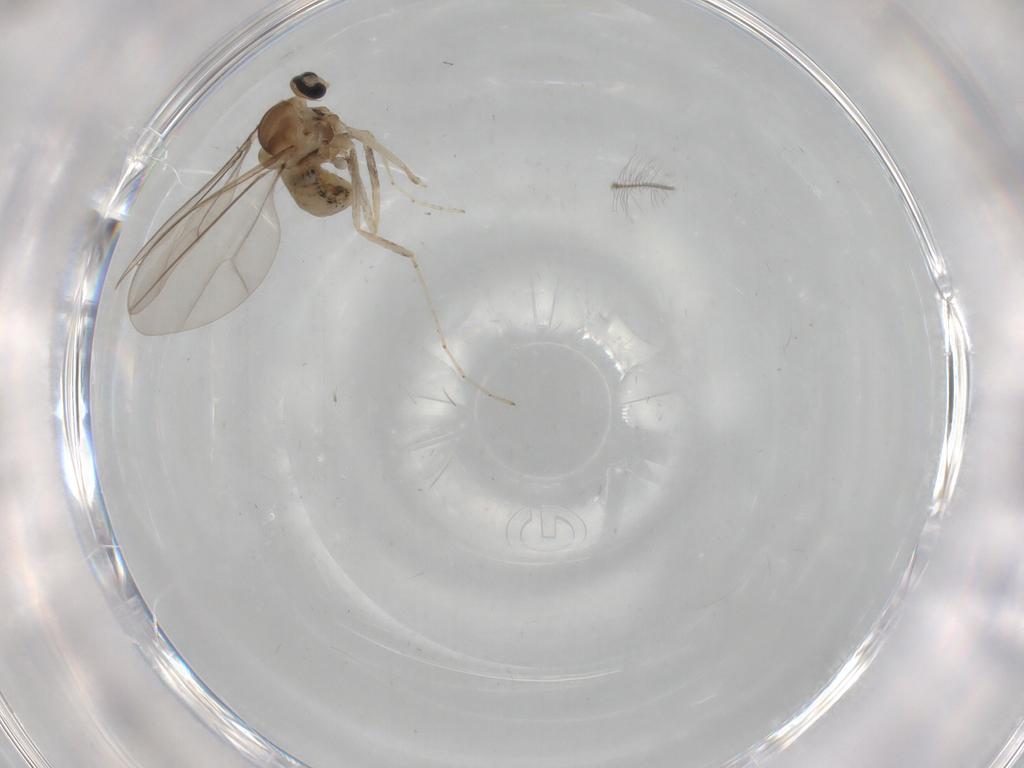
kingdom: Animalia
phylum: Arthropoda
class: Insecta
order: Diptera
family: Cecidomyiidae
